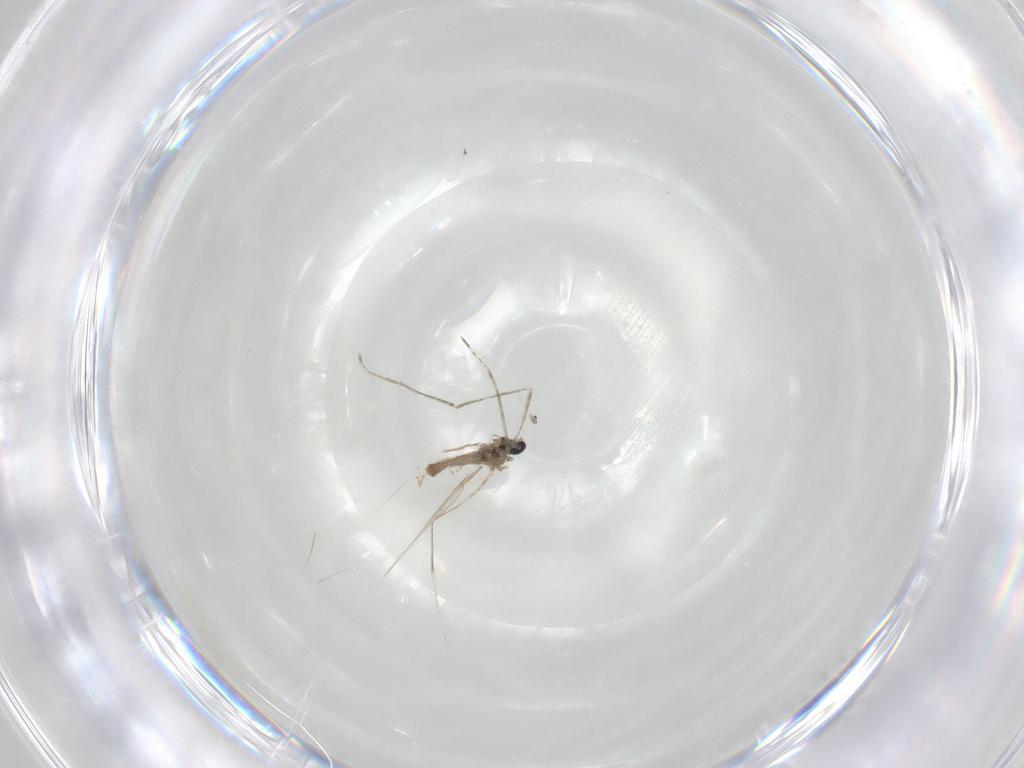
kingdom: Animalia
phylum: Arthropoda
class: Insecta
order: Diptera
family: Cecidomyiidae
